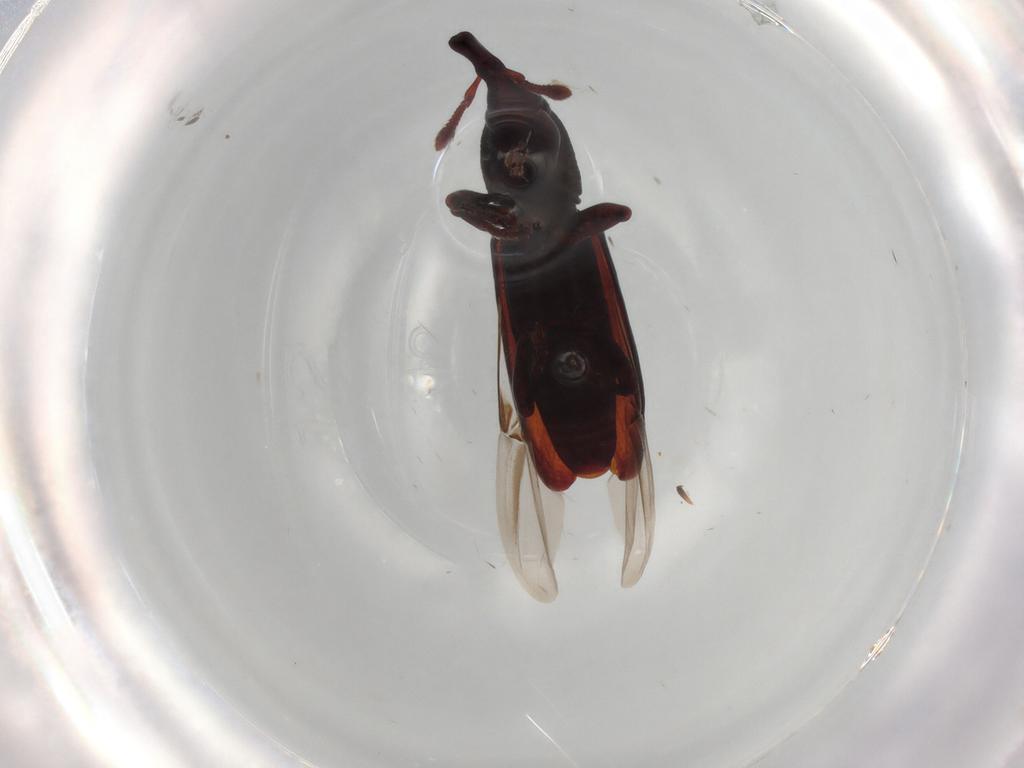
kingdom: Animalia
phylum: Arthropoda
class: Insecta
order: Coleoptera
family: Curculionidae
